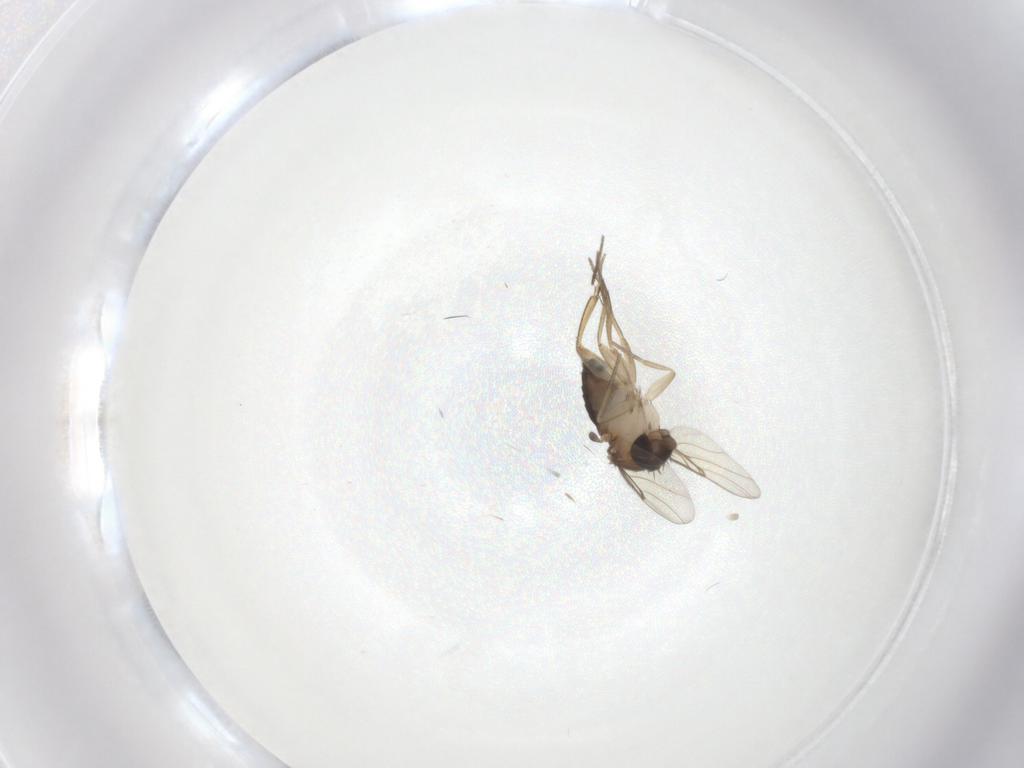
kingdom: Animalia
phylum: Arthropoda
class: Insecta
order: Diptera
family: Phoridae
